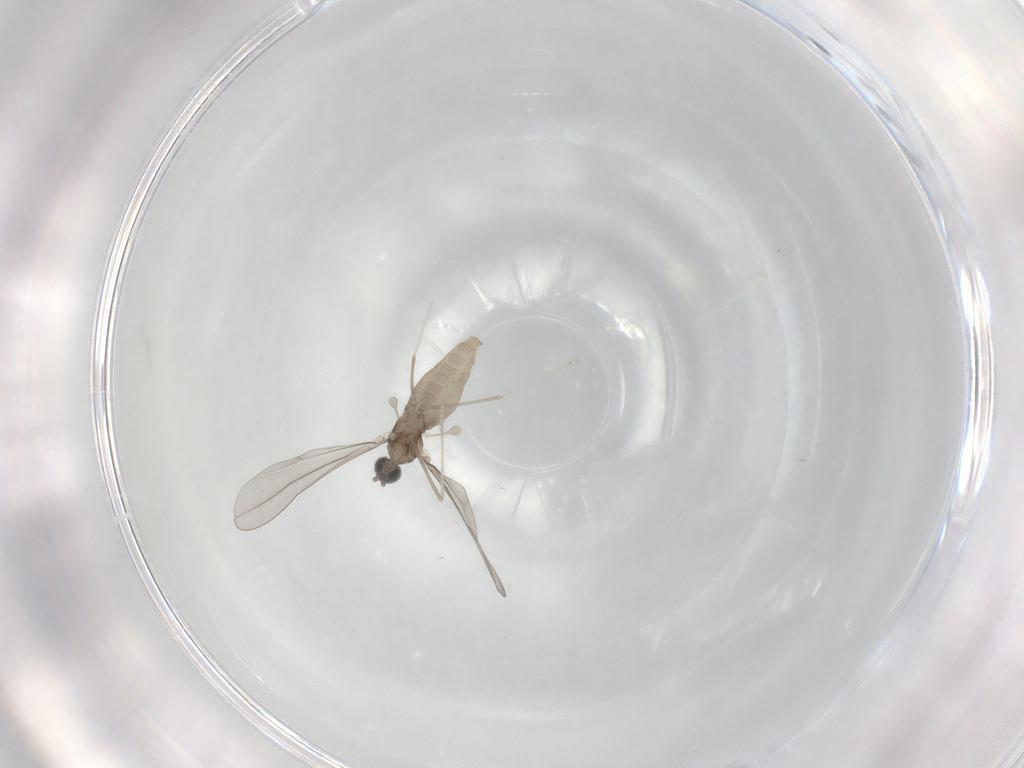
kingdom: Animalia
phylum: Arthropoda
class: Insecta
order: Diptera
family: Cecidomyiidae
